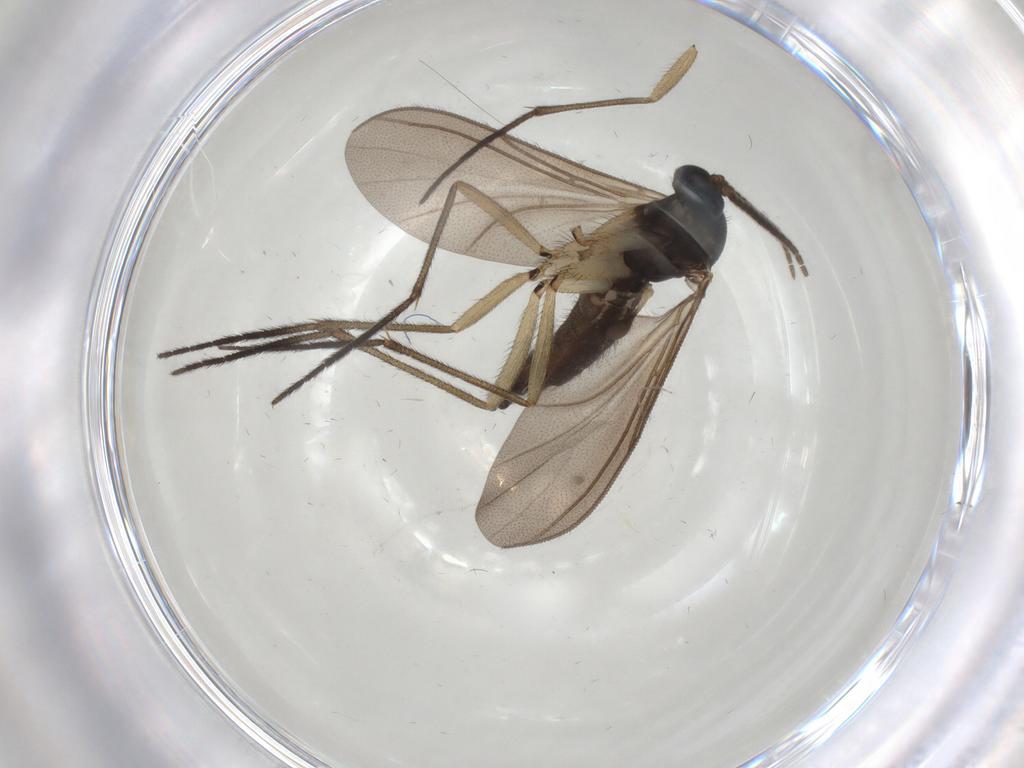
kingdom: Animalia
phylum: Arthropoda
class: Insecta
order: Diptera
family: Sciaridae
